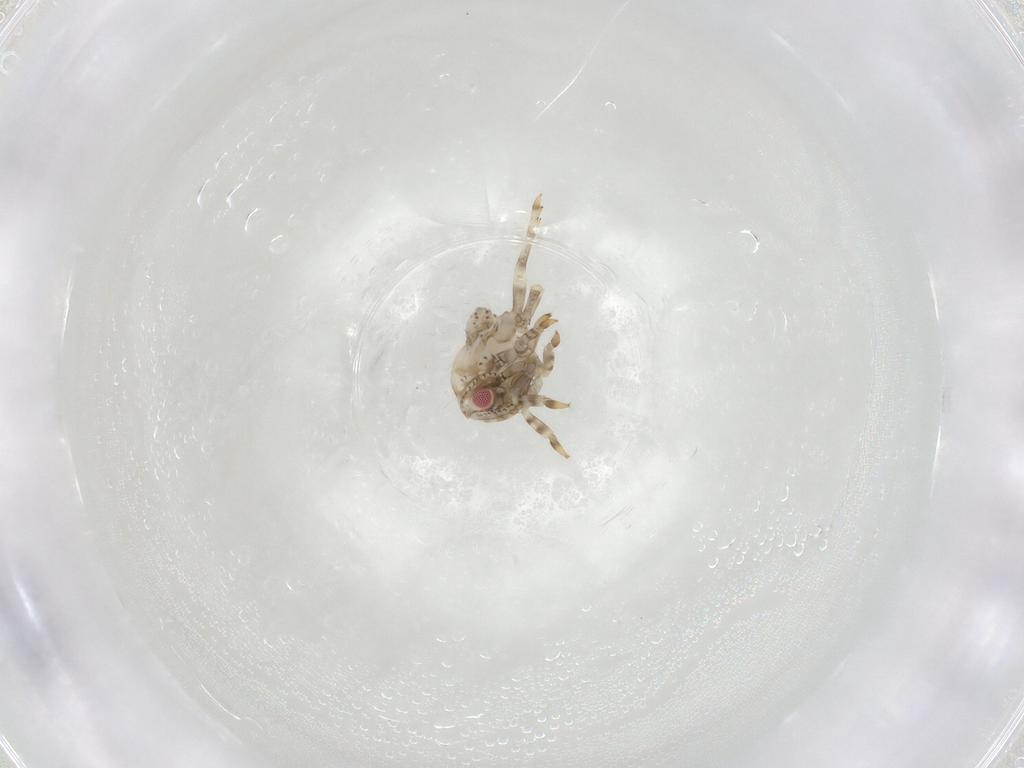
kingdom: Animalia
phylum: Arthropoda
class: Insecta
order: Hemiptera
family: Acanaloniidae
